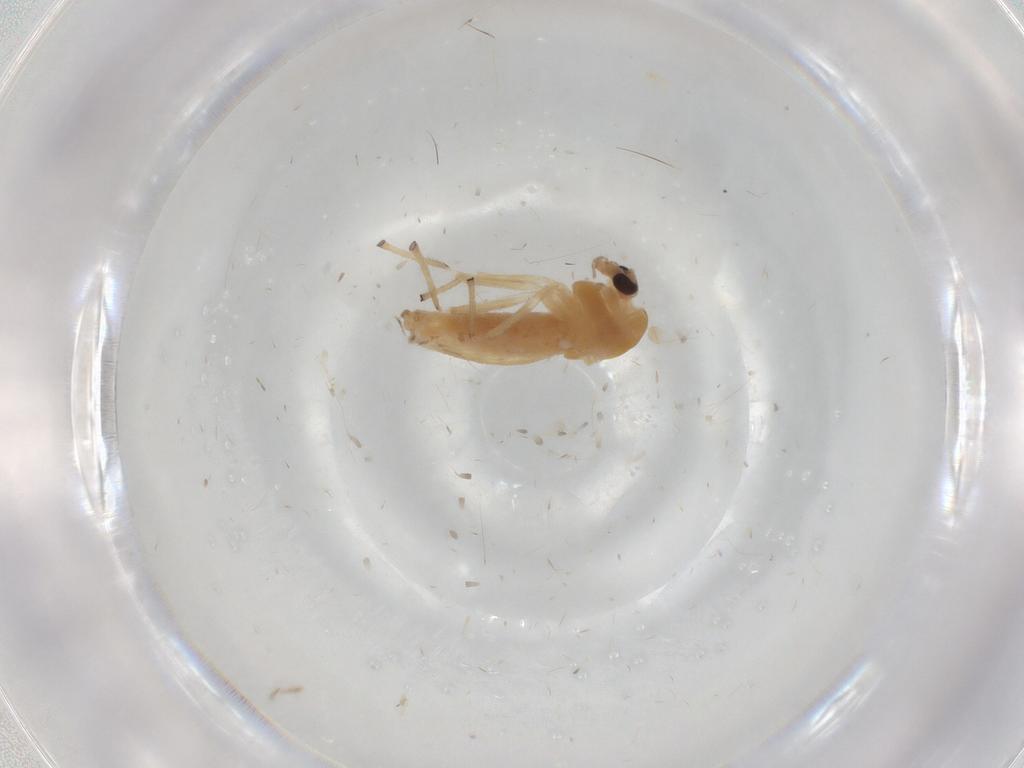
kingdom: Animalia
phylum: Arthropoda
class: Insecta
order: Diptera
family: Chironomidae
